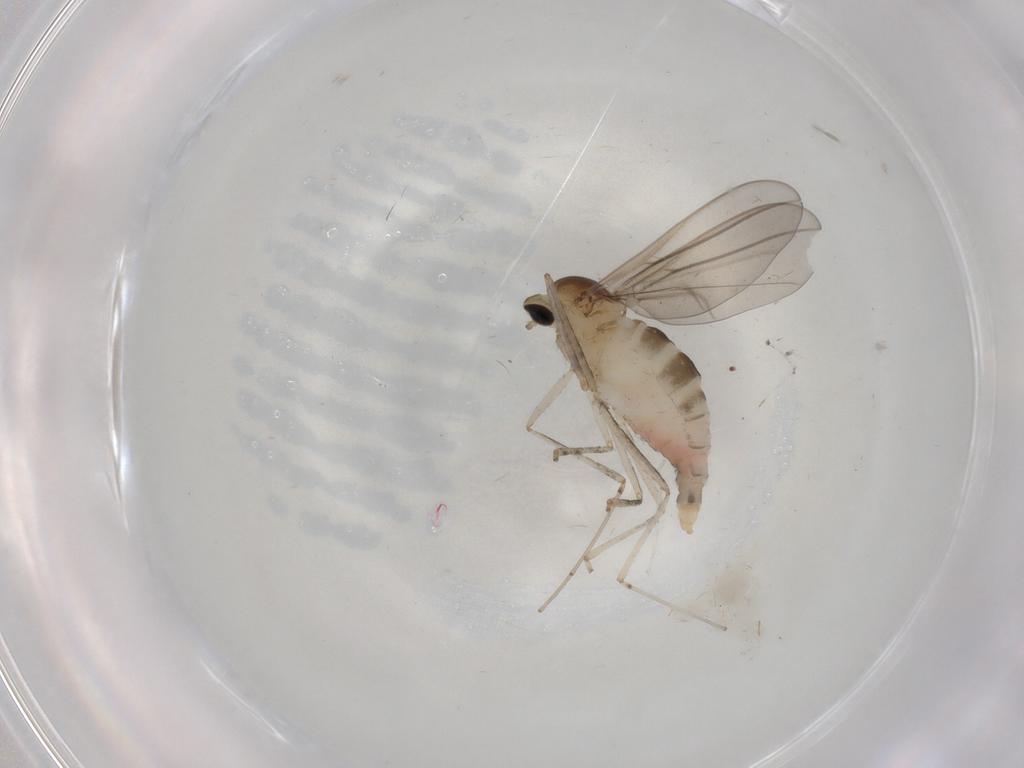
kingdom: Animalia
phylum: Arthropoda
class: Insecta
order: Diptera
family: Cecidomyiidae
